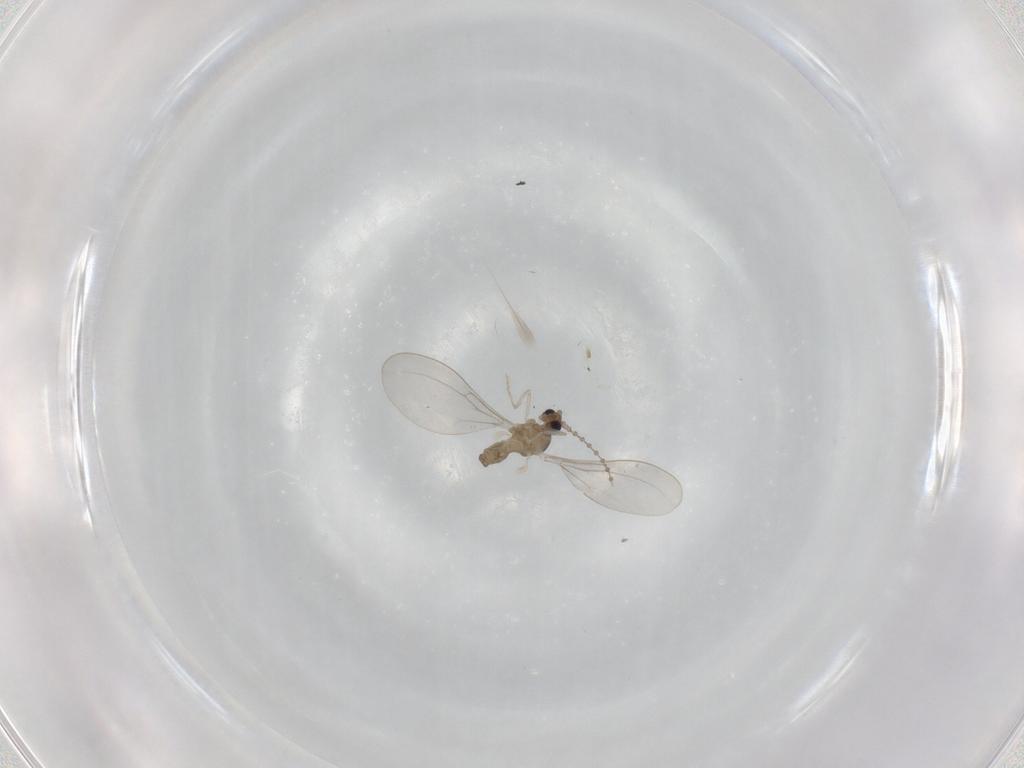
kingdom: Animalia
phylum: Arthropoda
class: Insecta
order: Diptera
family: Cecidomyiidae
